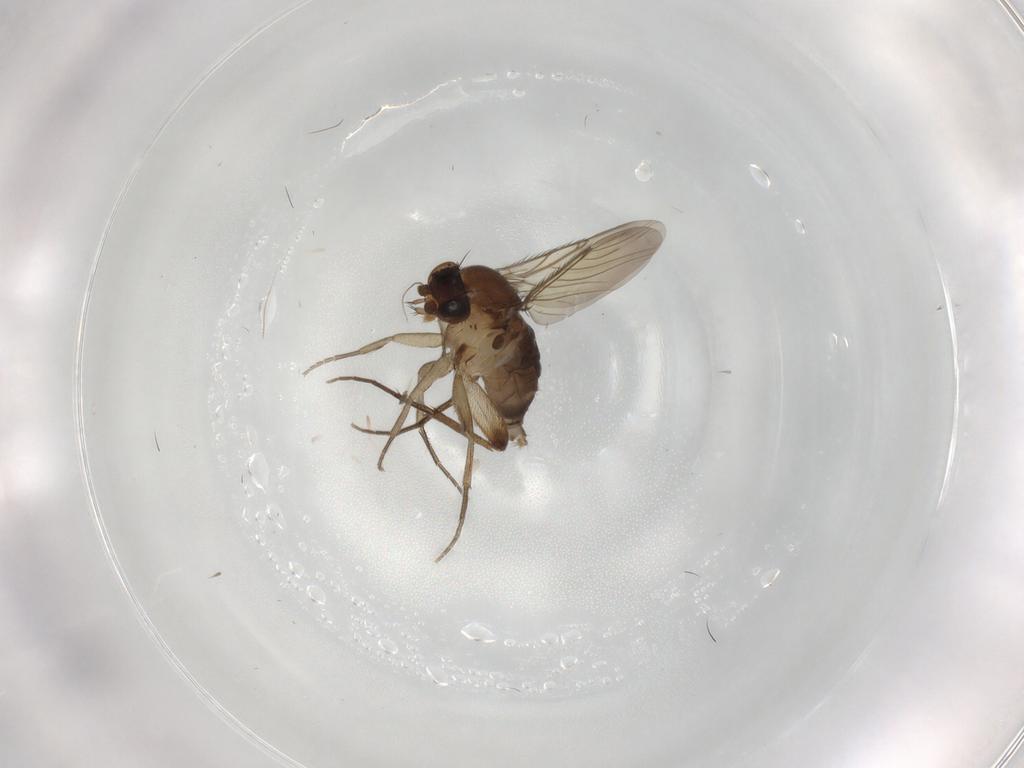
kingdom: Animalia
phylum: Arthropoda
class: Insecta
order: Diptera
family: Phoridae
